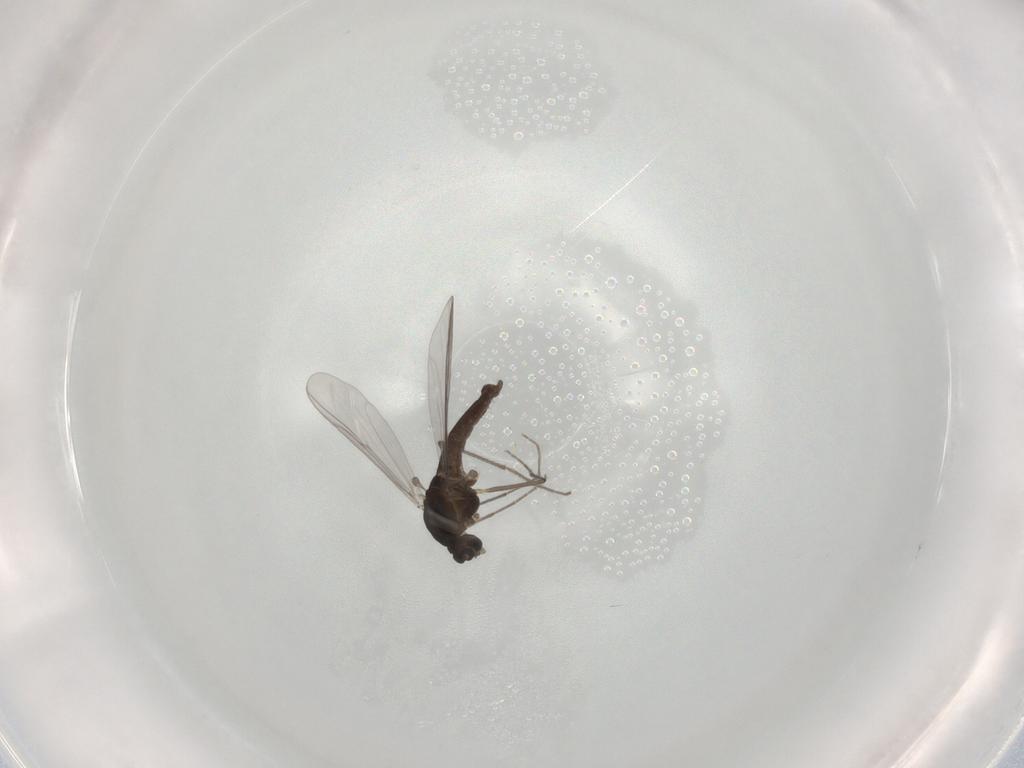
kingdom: Animalia
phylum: Arthropoda
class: Insecta
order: Diptera
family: Chironomidae
